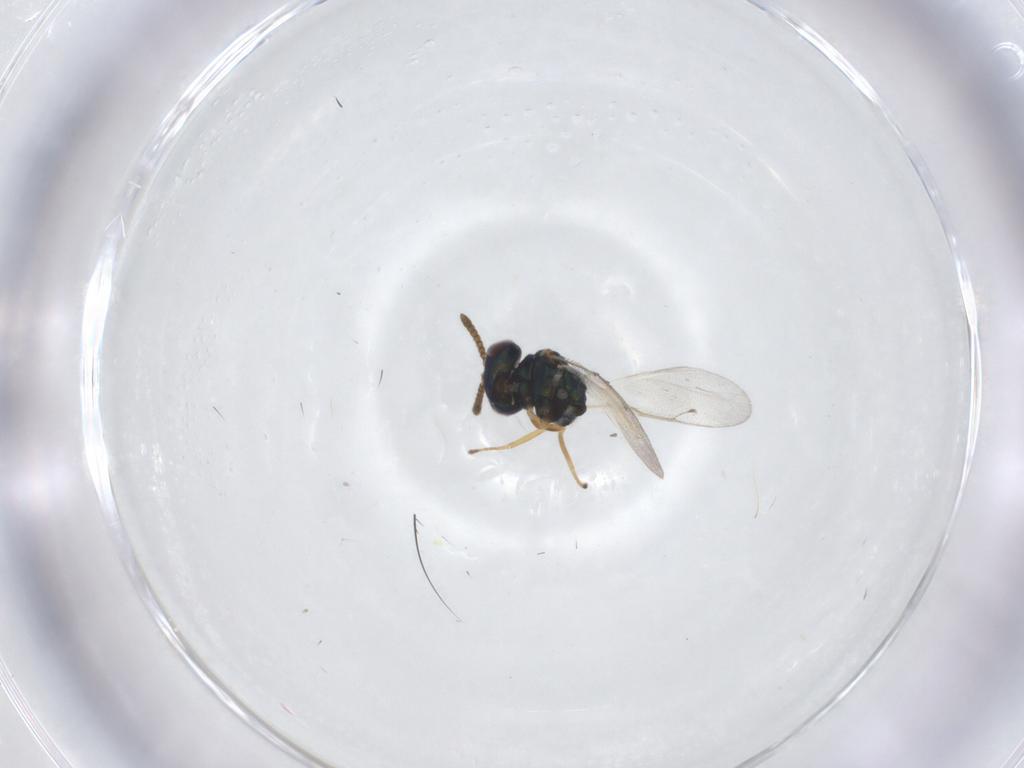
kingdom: Animalia
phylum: Arthropoda
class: Insecta
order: Hymenoptera
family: Pteromalidae
